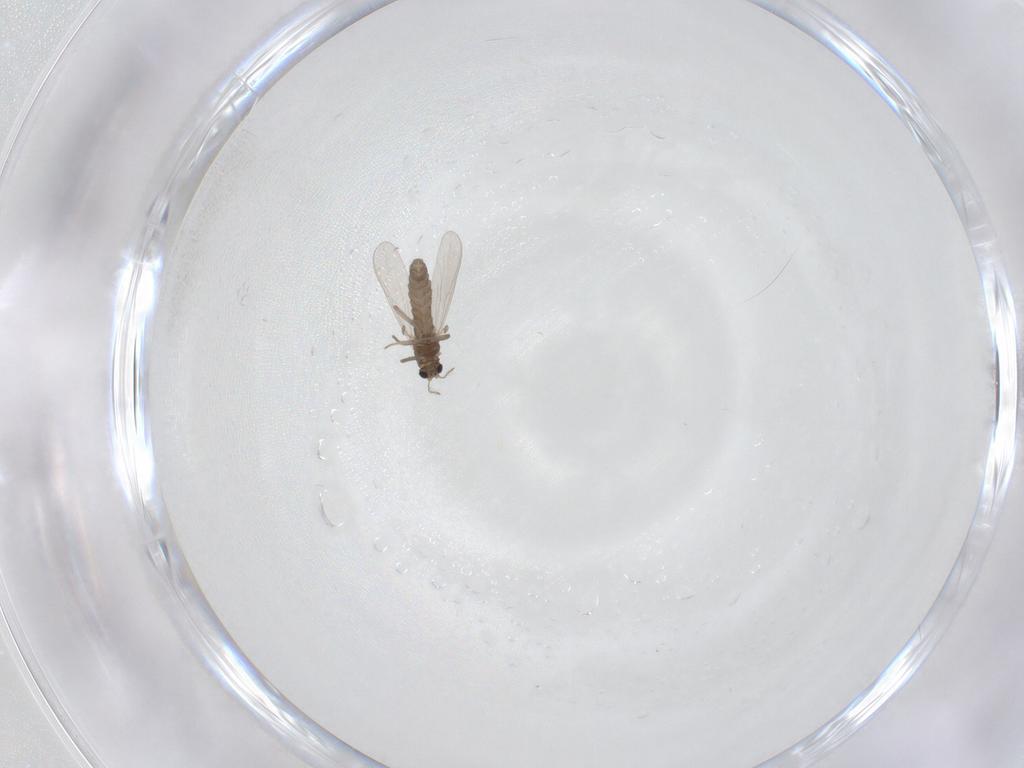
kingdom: Animalia
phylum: Arthropoda
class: Insecta
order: Diptera
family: Chironomidae
